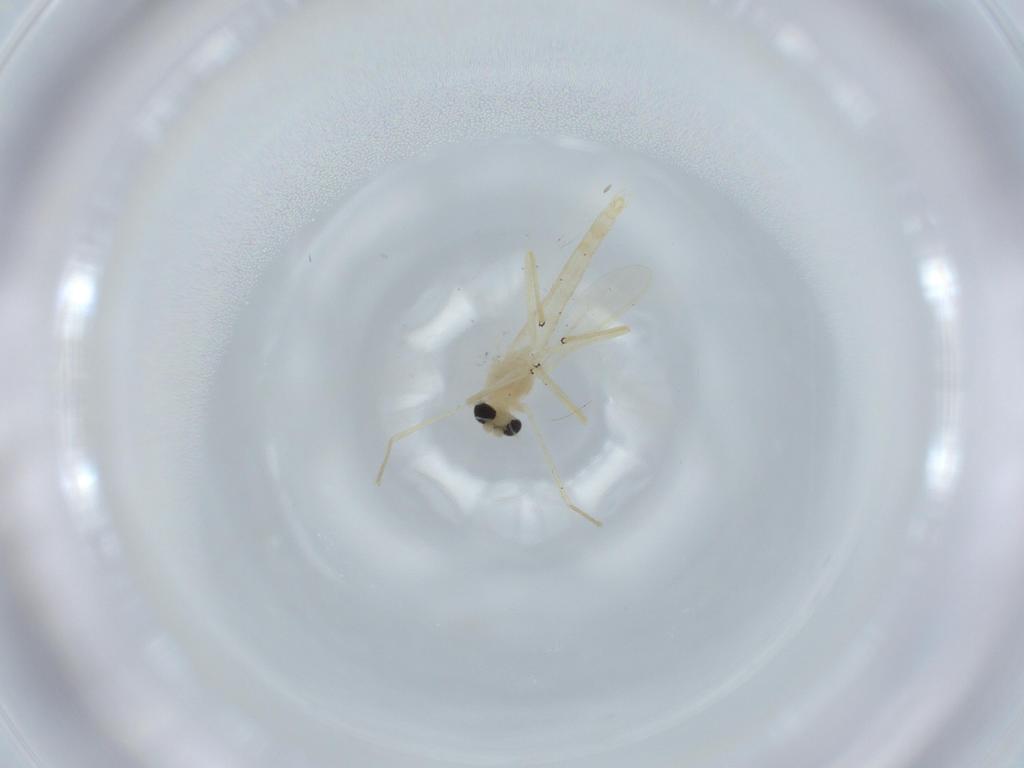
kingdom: Animalia
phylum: Arthropoda
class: Insecta
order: Diptera
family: Chironomidae
